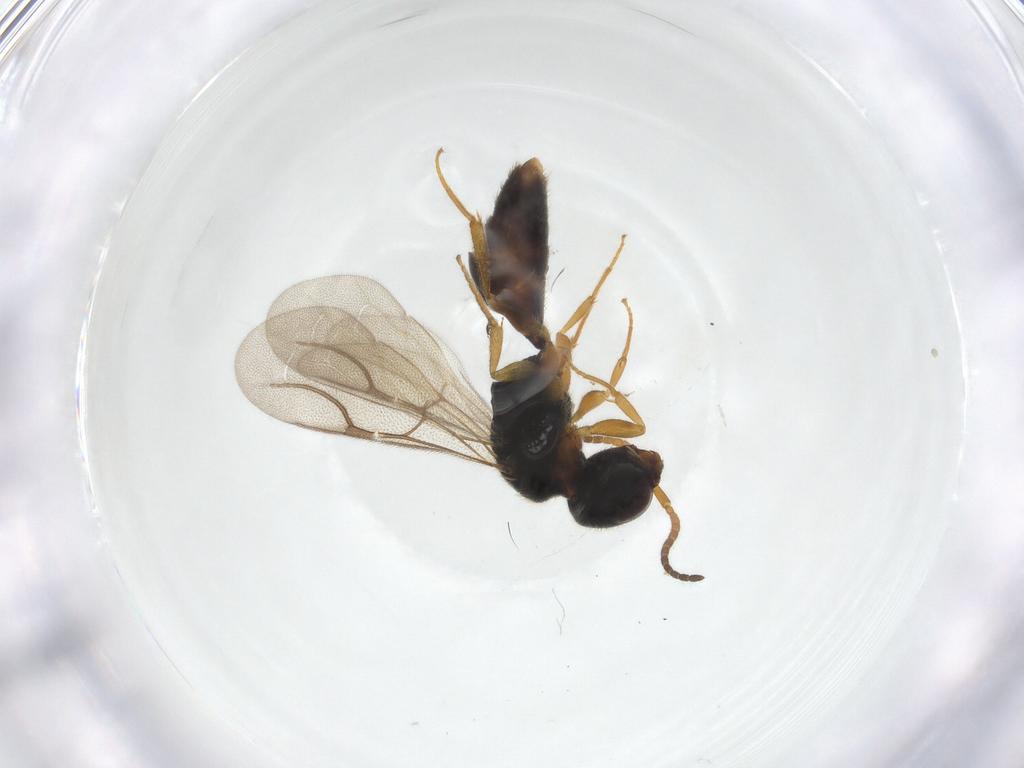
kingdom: Animalia
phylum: Arthropoda
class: Insecta
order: Hymenoptera
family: Bethylidae
